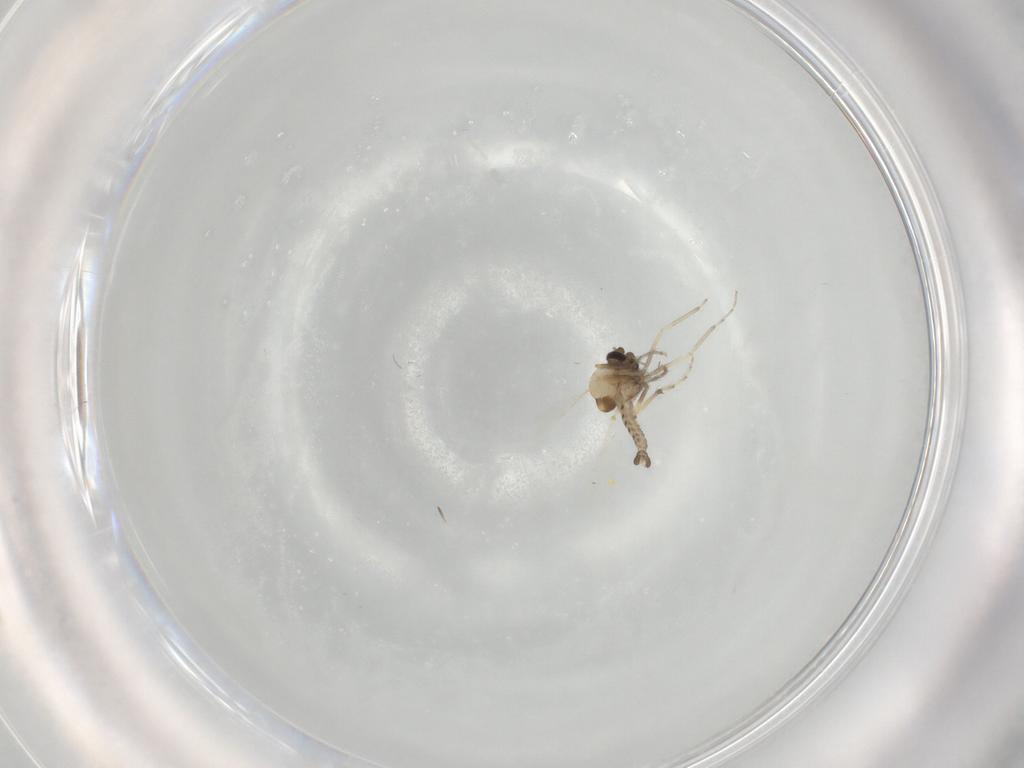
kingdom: Animalia
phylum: Arthropoda
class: Insecta
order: Diptera
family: Ceratopogonidae
